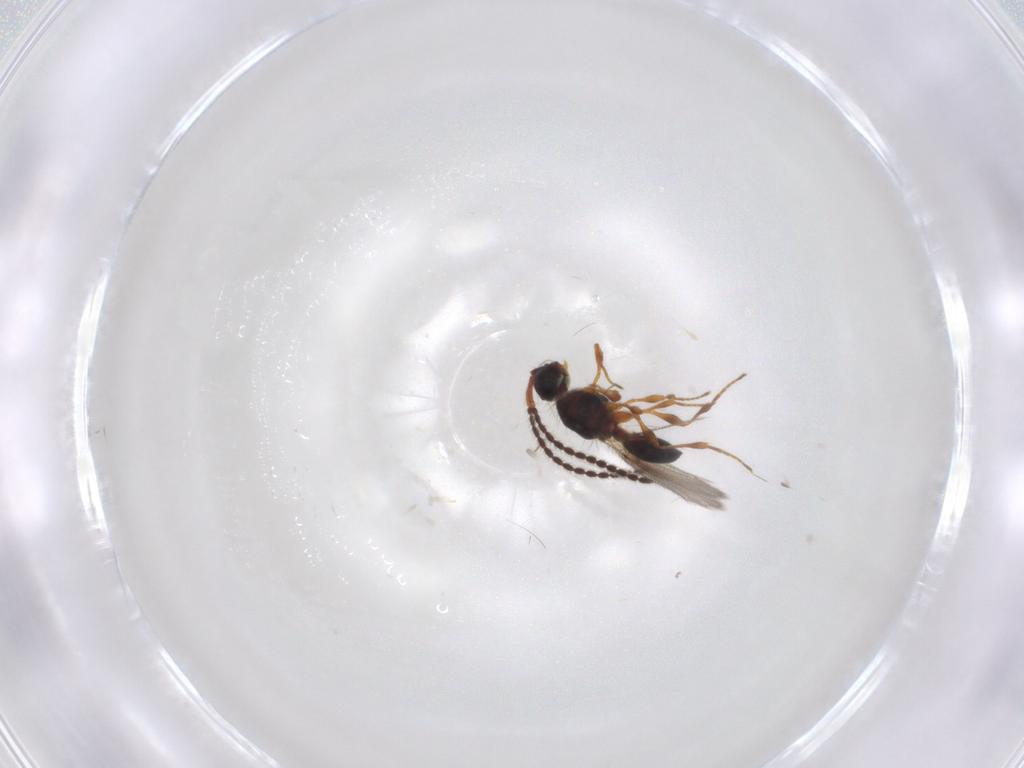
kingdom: Animalia
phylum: Arthropoda
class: Insecta
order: Hymenoptera
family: Diapriidae
